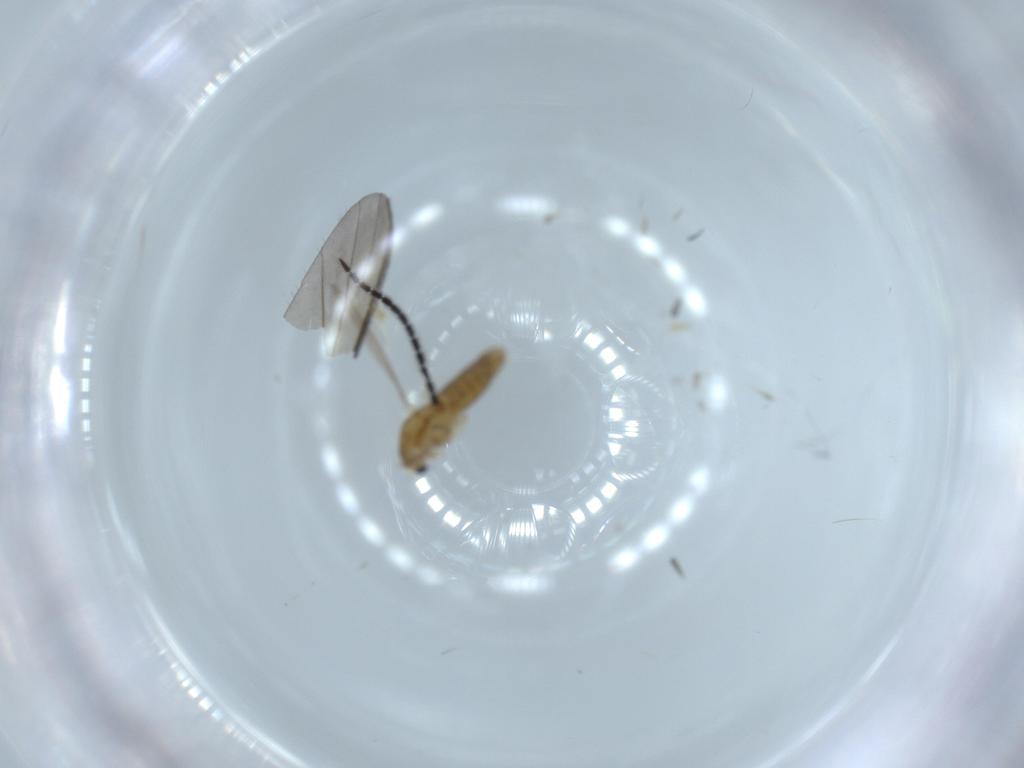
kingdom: Animalia
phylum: Arthropoda
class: Insecta
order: Diptera
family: Chironomidae
